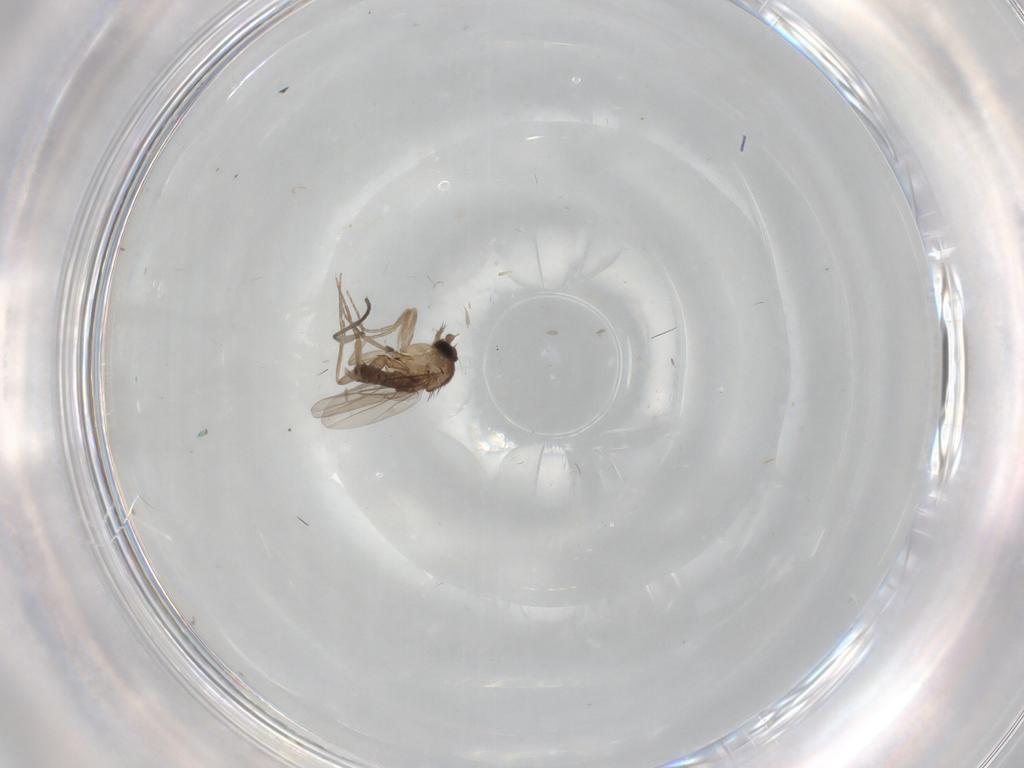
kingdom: Animalia
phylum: Arthropoda
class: Insecta
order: Diptera
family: Phoridae
